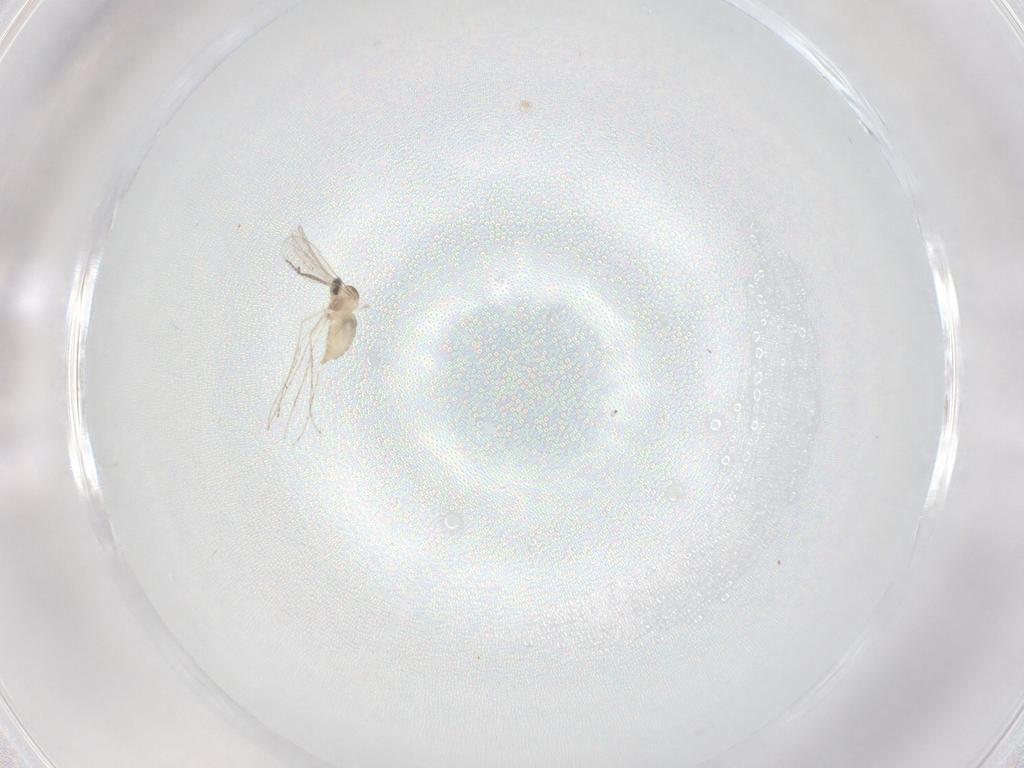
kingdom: Animalia
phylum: Arthropoda
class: Insecta
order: Diptera
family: Cecidomyiidae
